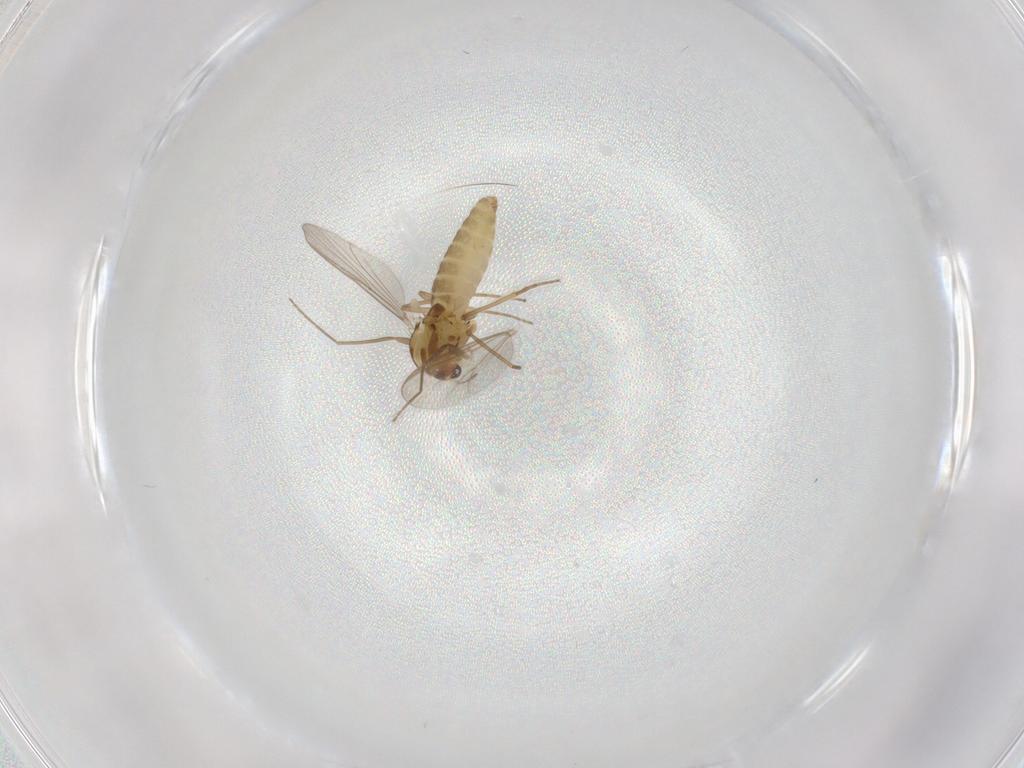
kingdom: Animalia
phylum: Arthropoda
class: Insecta
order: Diptera
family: Chironomidae
